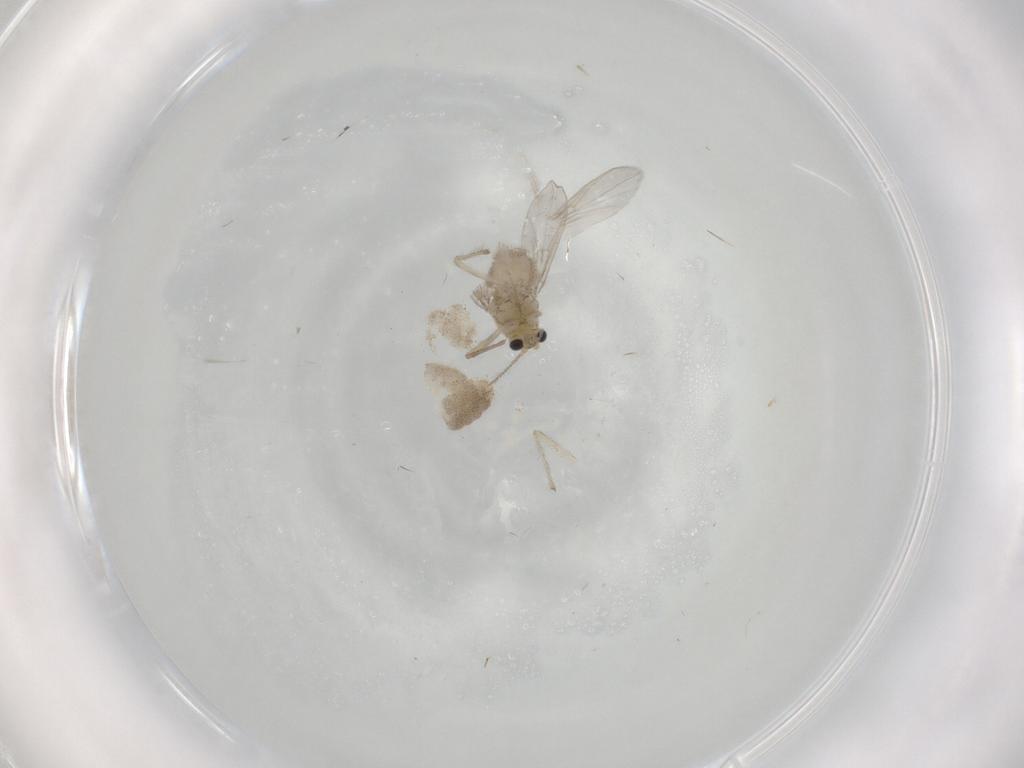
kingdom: Animalia
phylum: Arthropoda
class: Insecta
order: Diptera
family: Chironomidae
